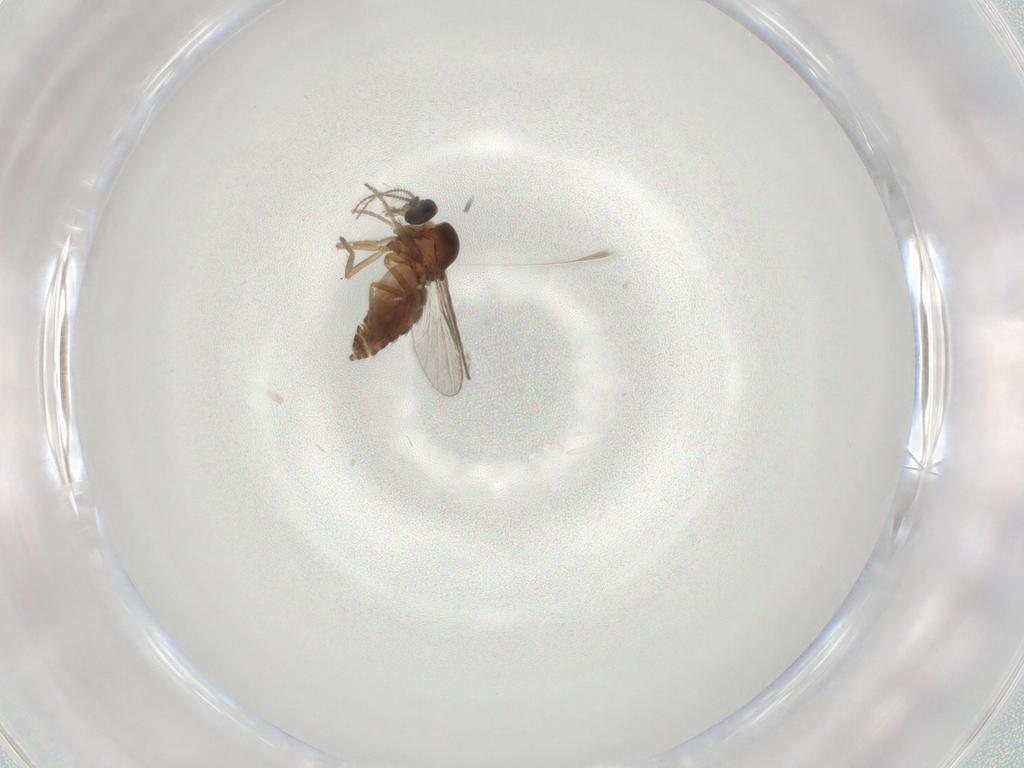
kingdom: Animalia
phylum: Arthropoda
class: Insecta
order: Diptera
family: Ceratopogonidae
